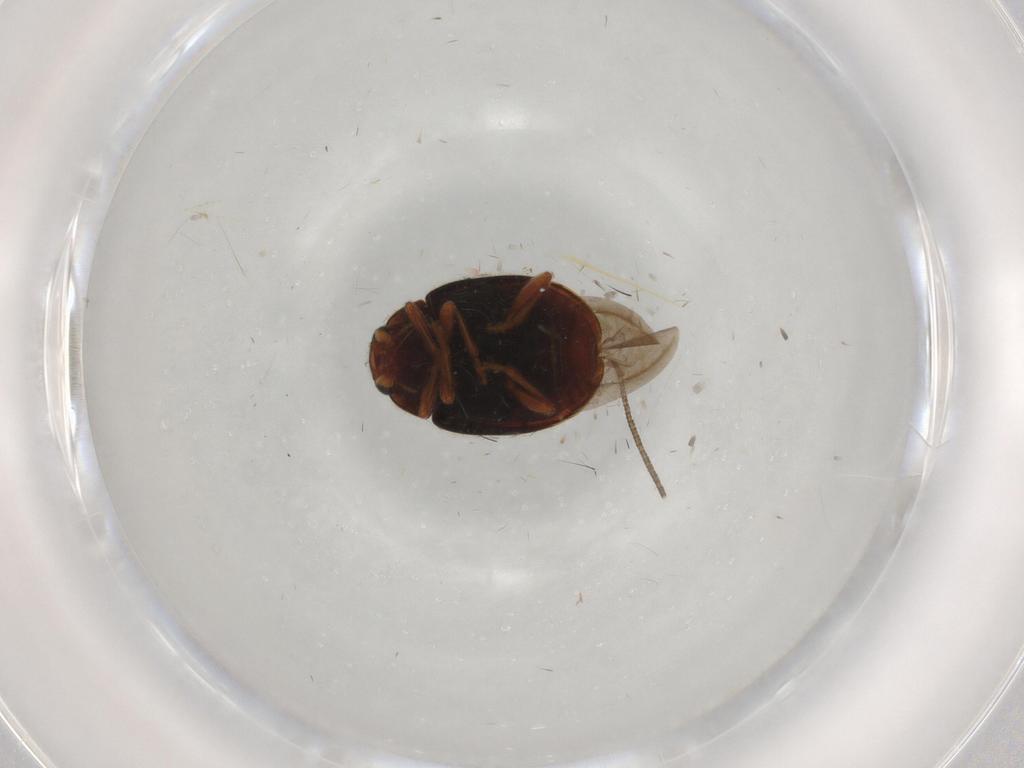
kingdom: Animalia
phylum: Arthropoda
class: Insecta
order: Coleoptera
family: Coccinellidae
